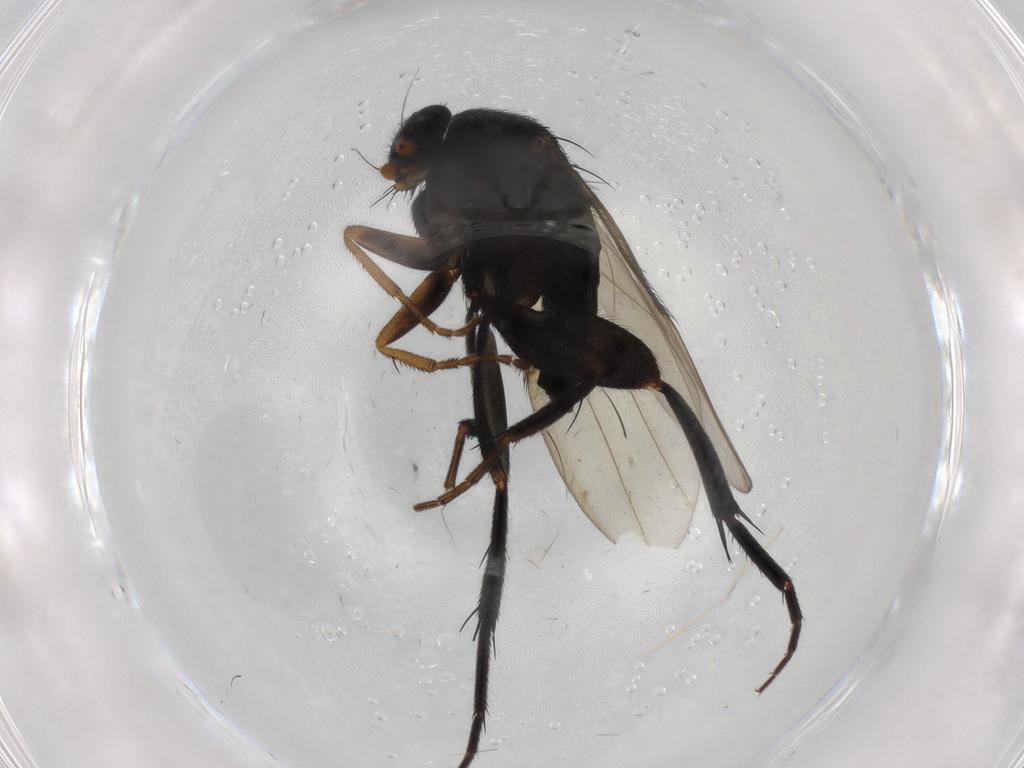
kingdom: Animalia
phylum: Arthropoda
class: Insecta
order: Diptera
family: Phoridae
